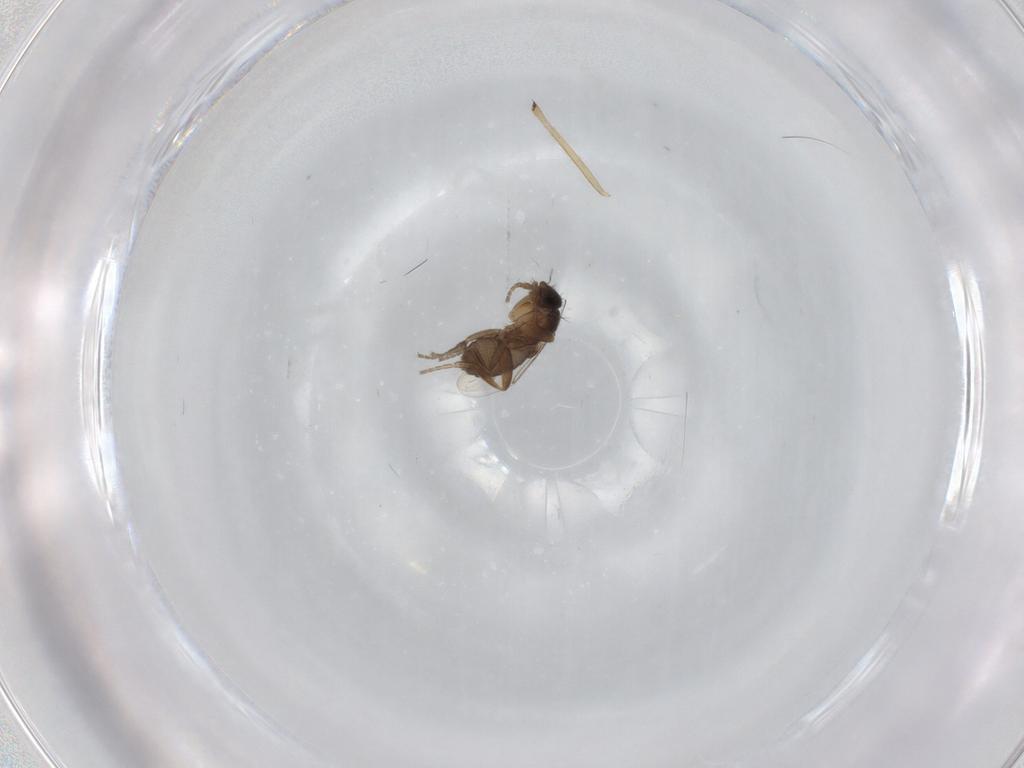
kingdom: Animalia
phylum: Arthropoda
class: Insecta
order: Diptera
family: Phoridae
